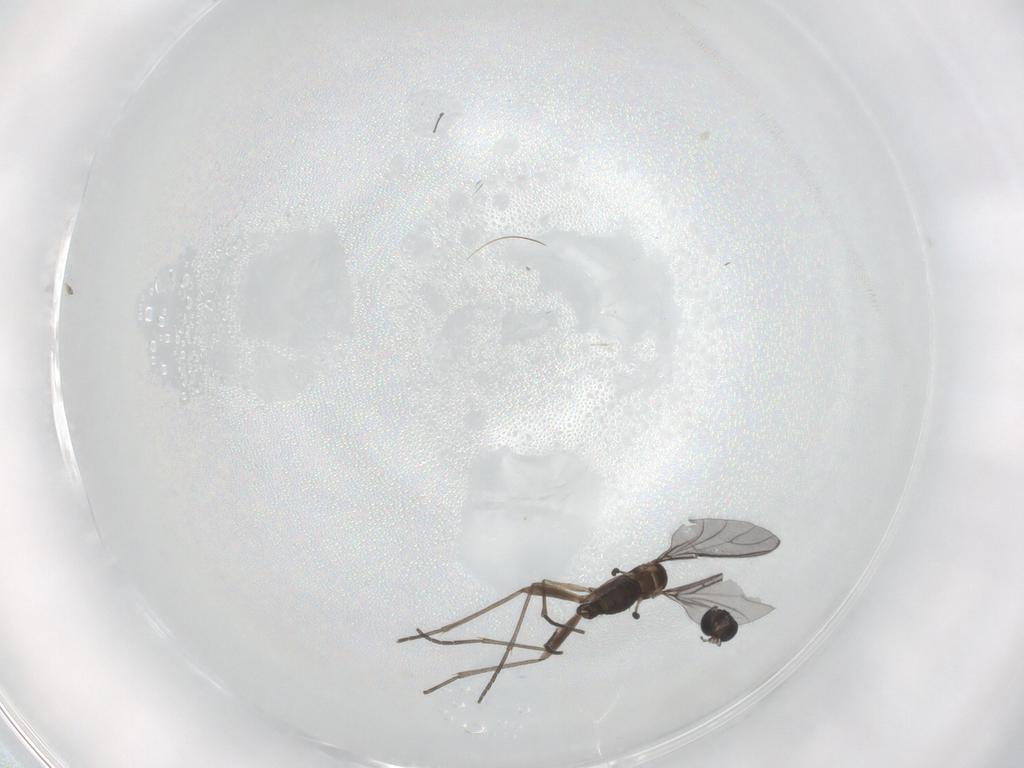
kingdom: Animalia
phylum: Arthropoda
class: Insecta
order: Diptera
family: Sciaridae
